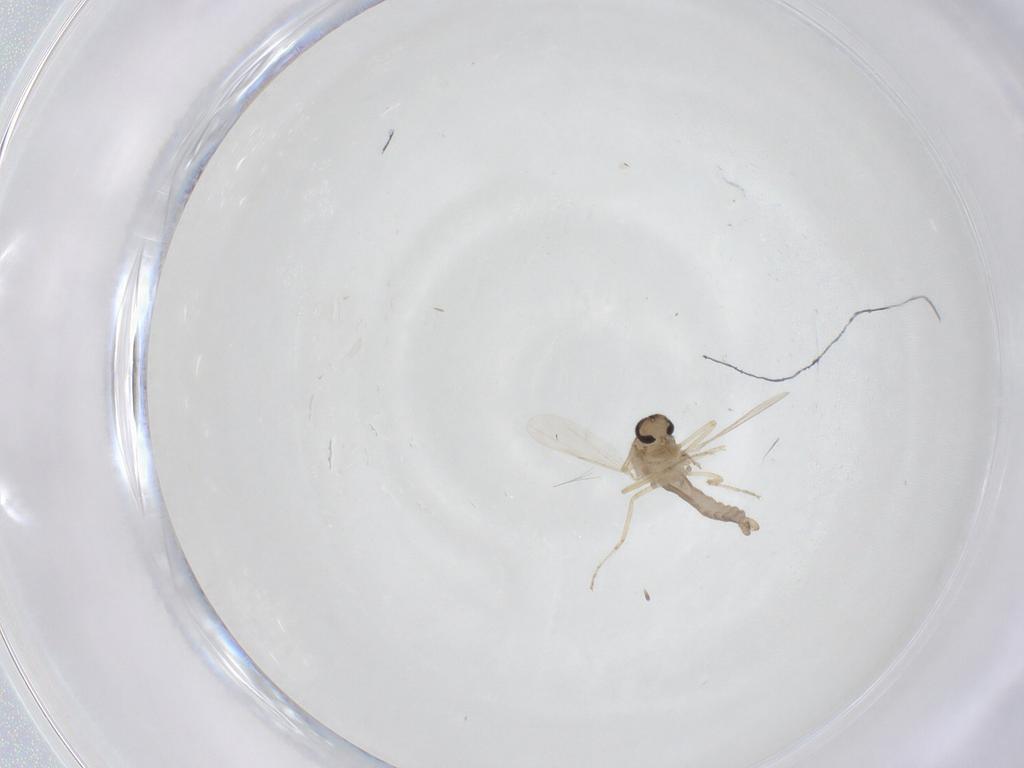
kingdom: Animalia
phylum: Arthropoda
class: Insecta
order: Diptera
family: Ceratopogonidae
